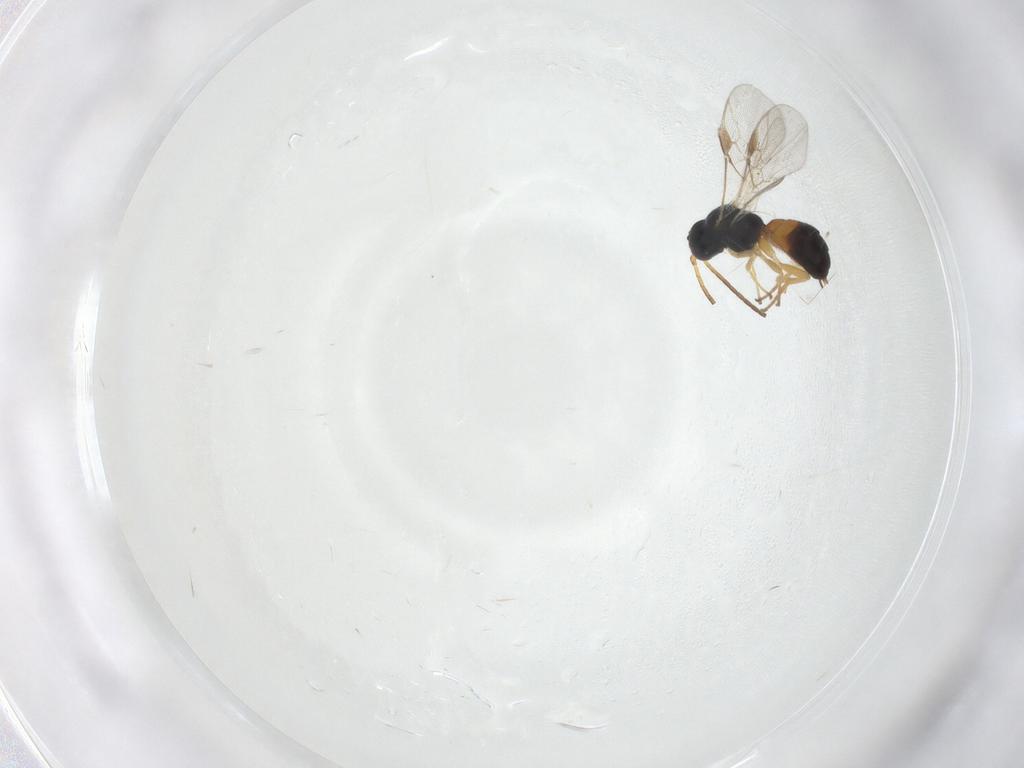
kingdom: Animalia
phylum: Arthropoda
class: Insecta
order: Hymenoptera
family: Braconidae
